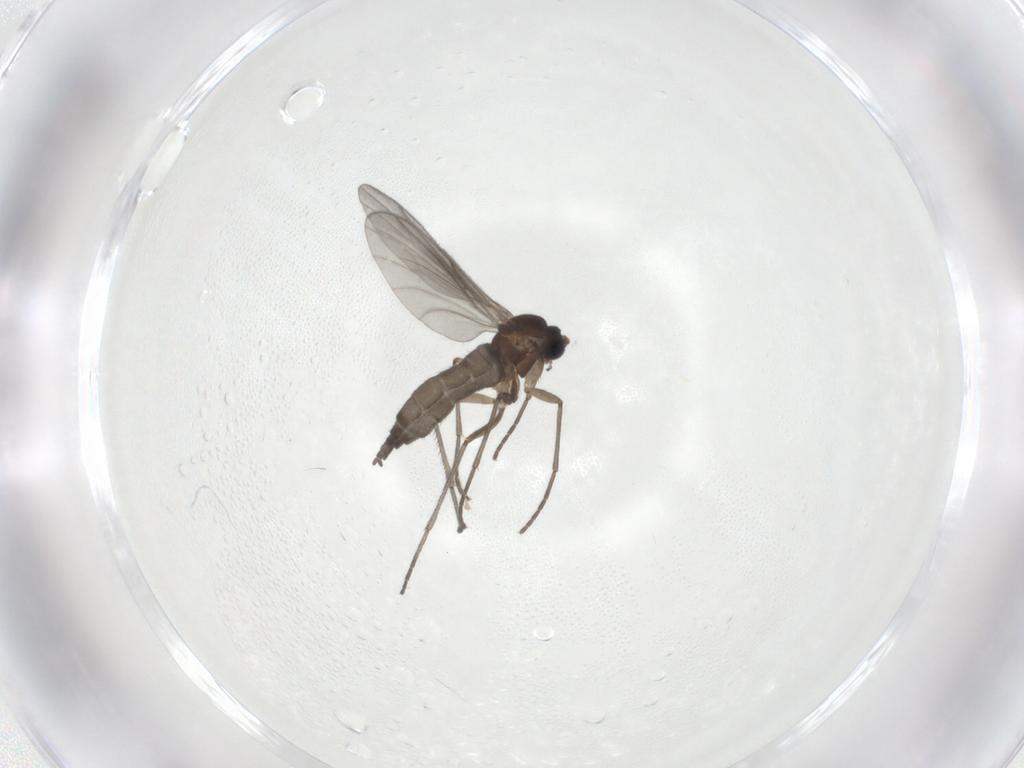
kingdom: Animalia
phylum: Arthropoda
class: Insecta
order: Diptera
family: Sciaridae
